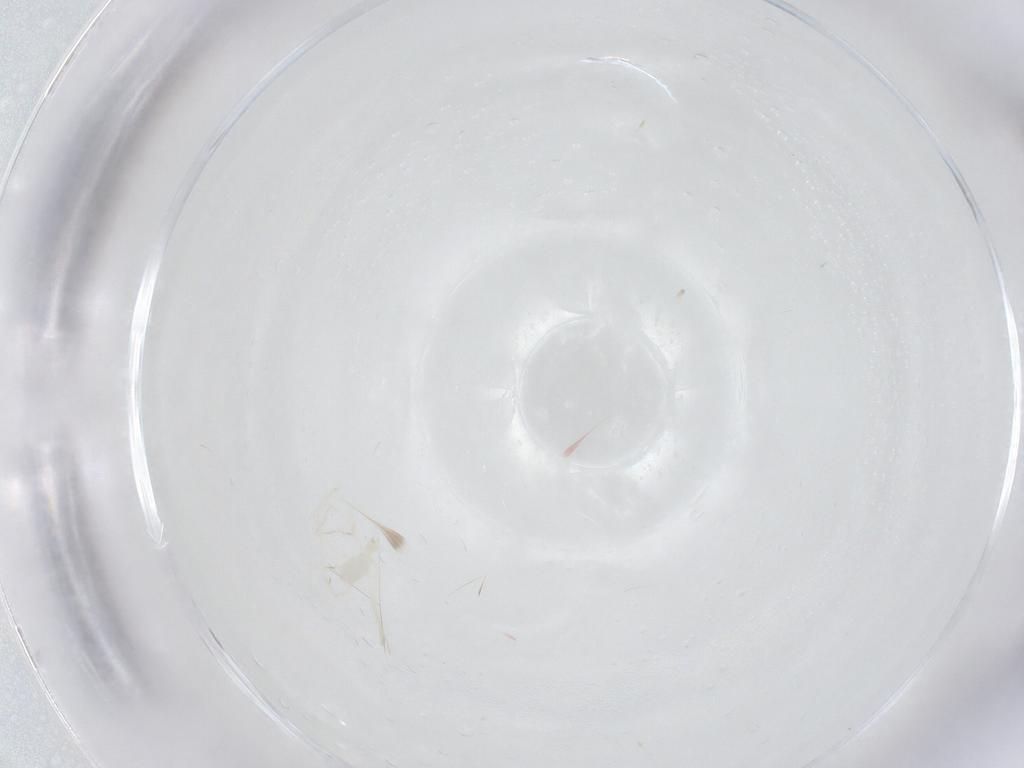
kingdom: Animalia
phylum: Arthropoda
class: Insecta
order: Diptera
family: Ceratopogonidae
